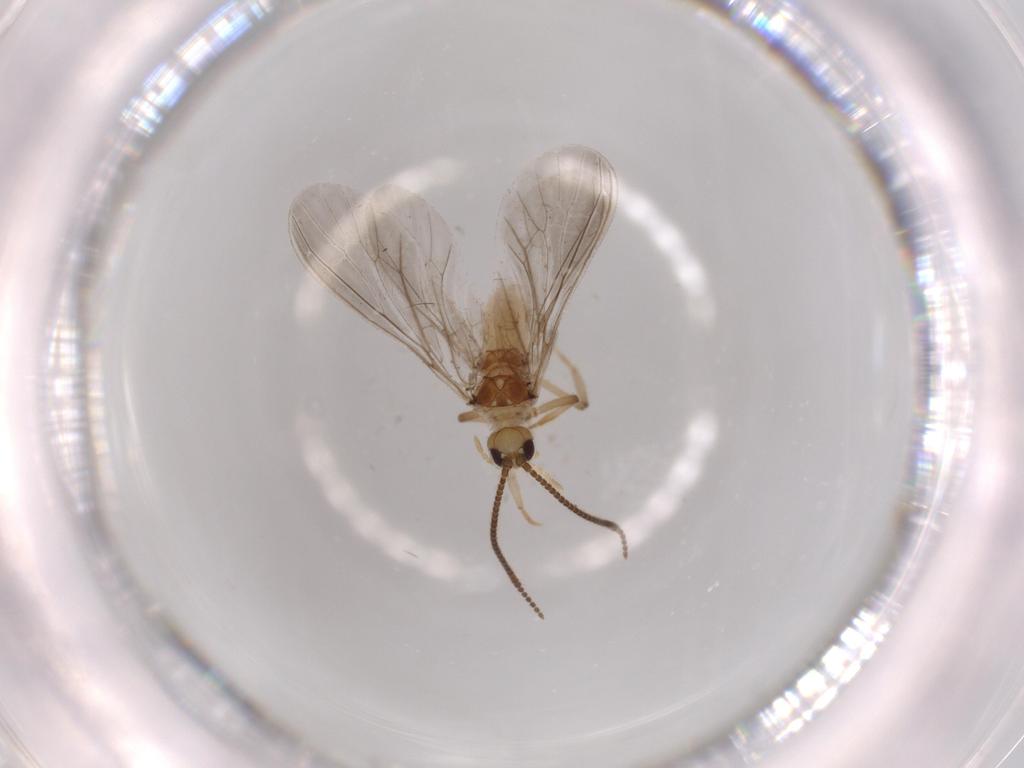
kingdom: Animalia
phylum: Arthropoda
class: Insecta
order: Neuroptera
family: Coniopterygidae
